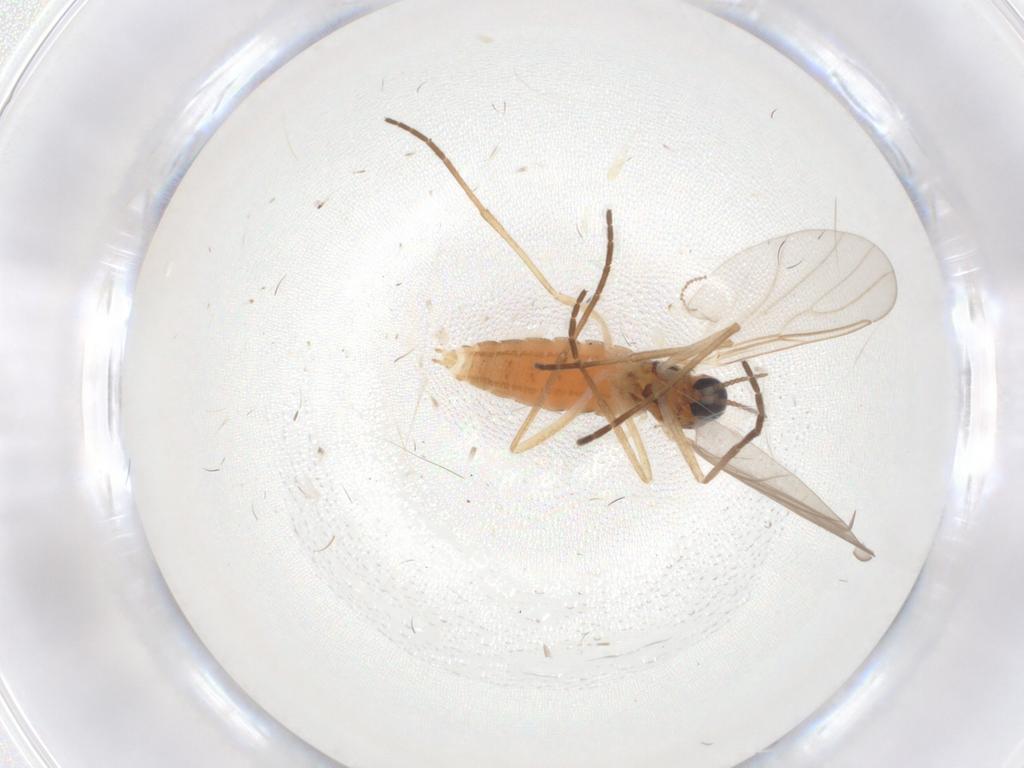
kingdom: Animalia
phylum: Arthropoda
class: Insecta
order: Diptera
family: Cecidomyiidae
